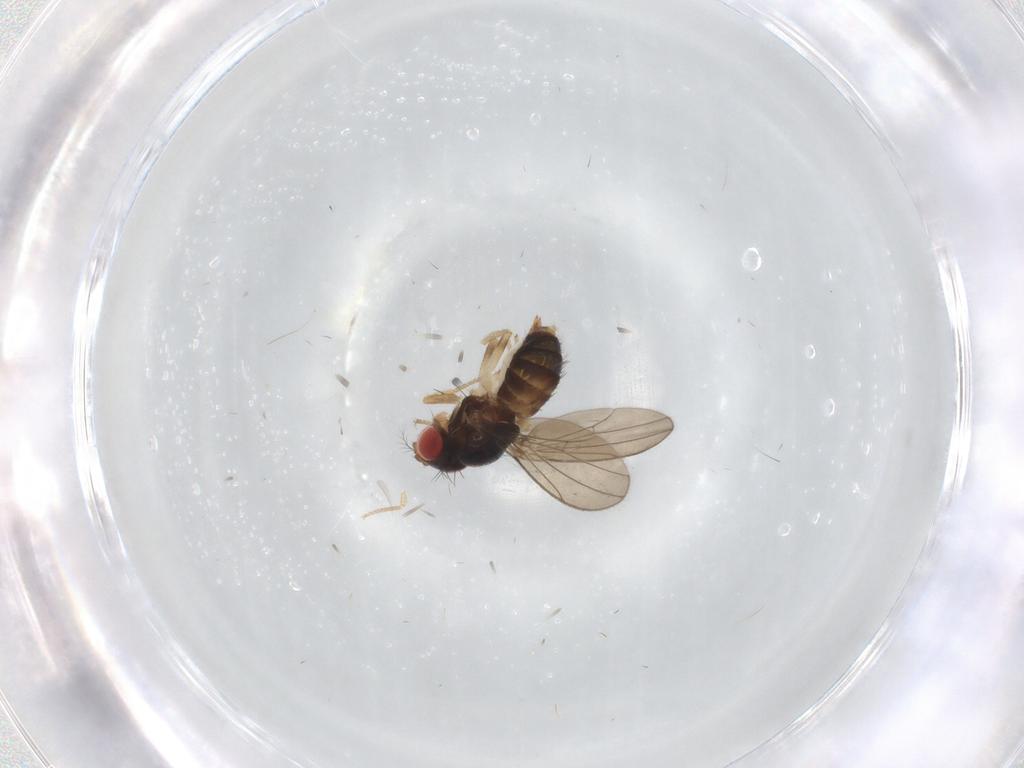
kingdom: Animalia
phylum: Arthropoda
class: Insecta
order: Diptera
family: Drosophilidae
